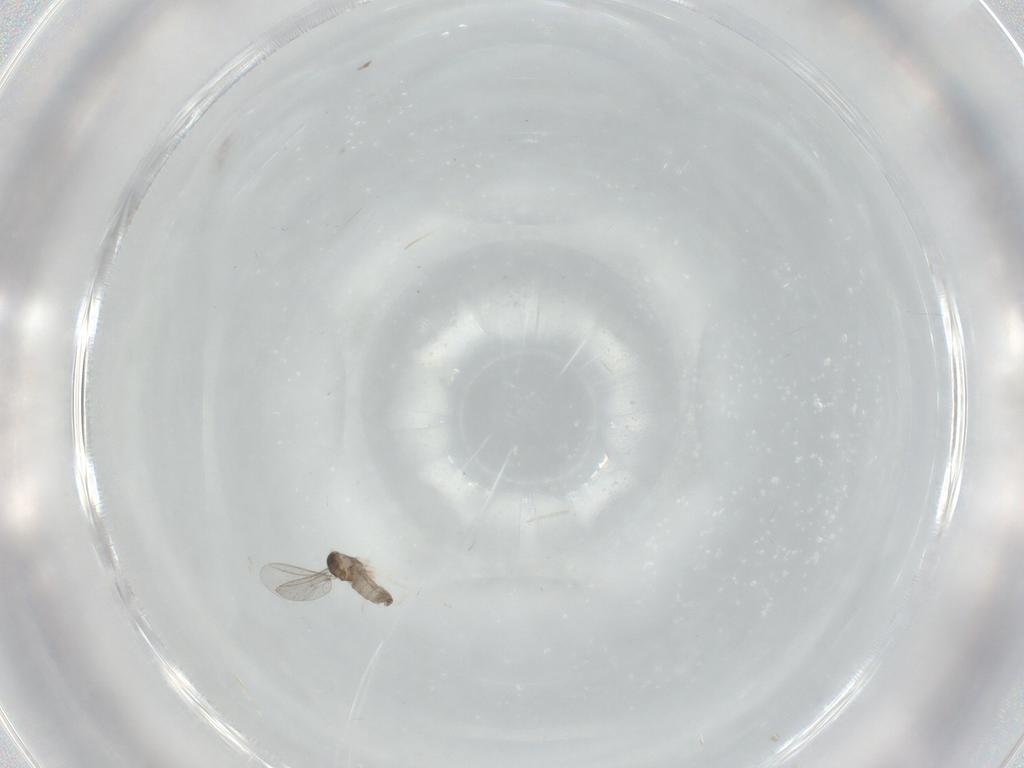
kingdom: Animalia
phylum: Arthropoda
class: Insecta
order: Diptera
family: Cecidomyiidae
